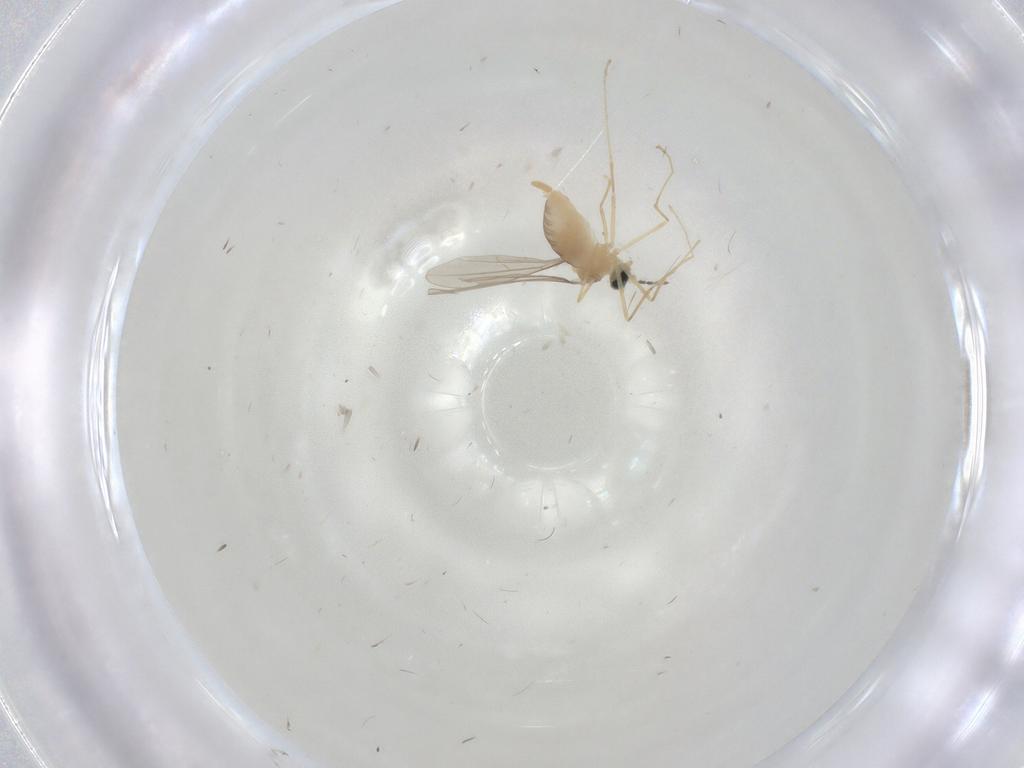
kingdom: Animalia
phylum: Arthropoda
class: Insecta
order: Diptera
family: Cecidomyiidae
